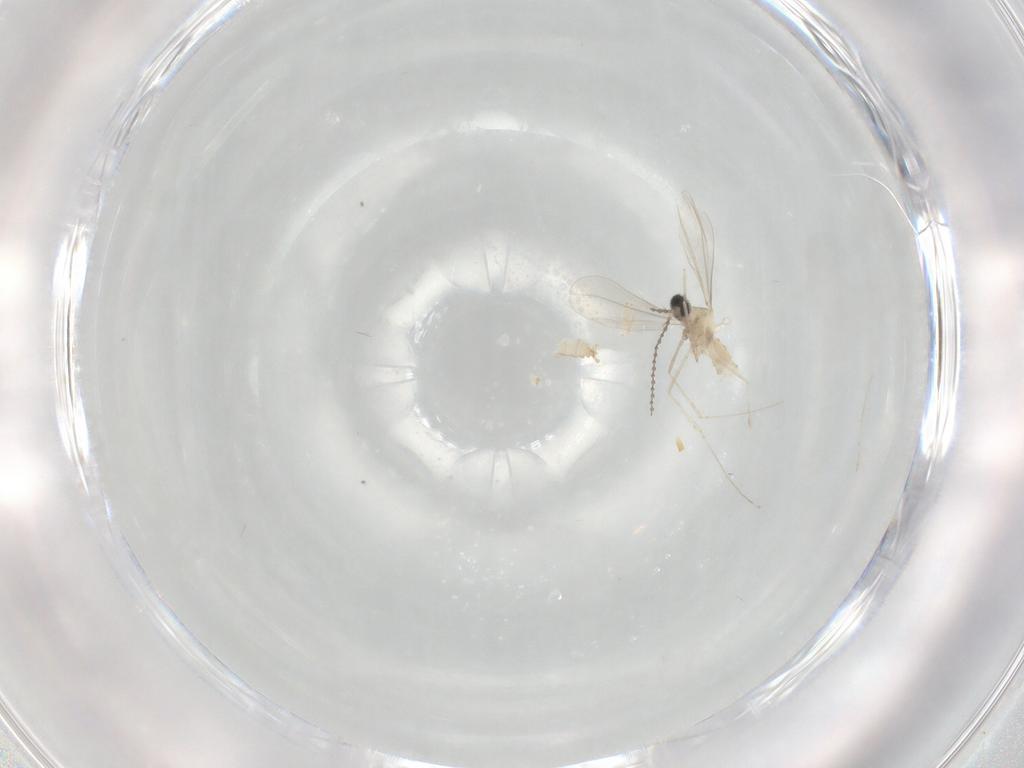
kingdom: Animalia
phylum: Arthropoda
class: Insecta
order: Diptera
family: Cecidomyiidae
